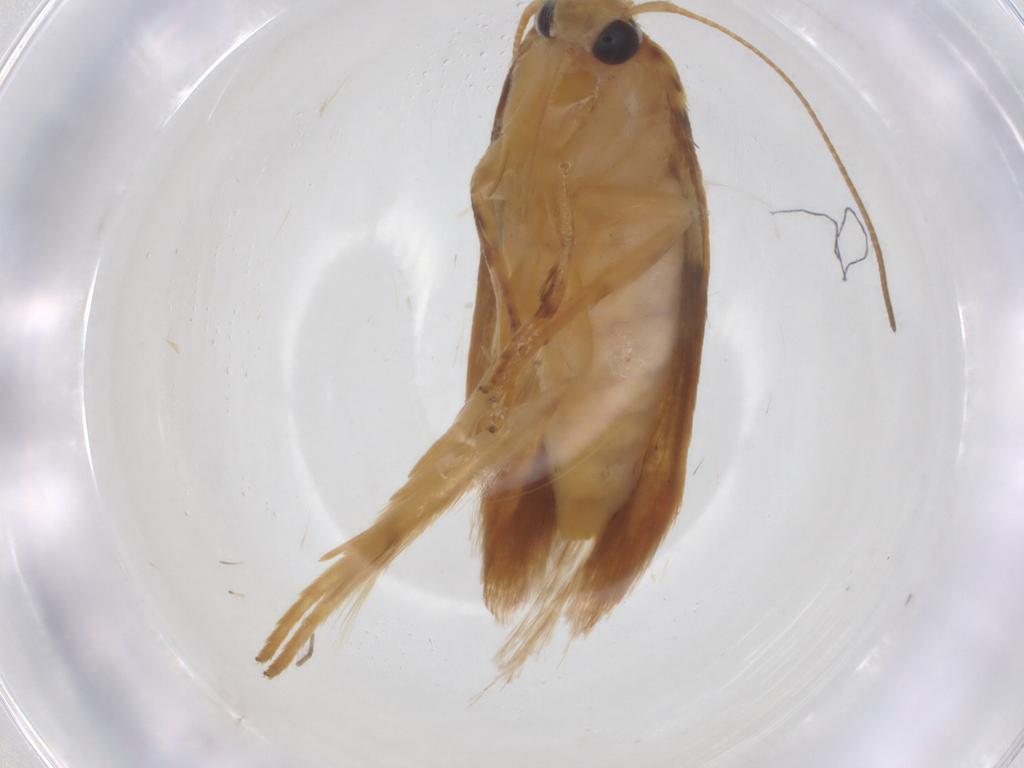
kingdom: Animalia
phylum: Arthropoda
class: Insecta
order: Lepidoptera
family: Stathmopodidae
